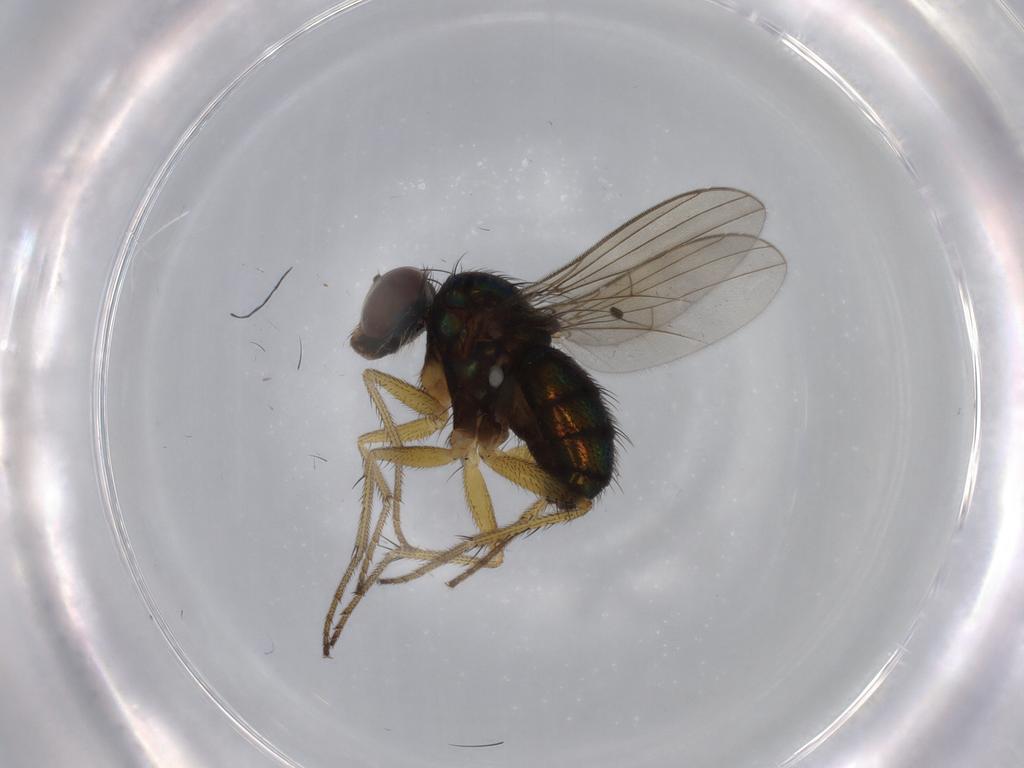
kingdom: Animalia
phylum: Arthropoda
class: Insecta
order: Diptera
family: Dolichopodidae
